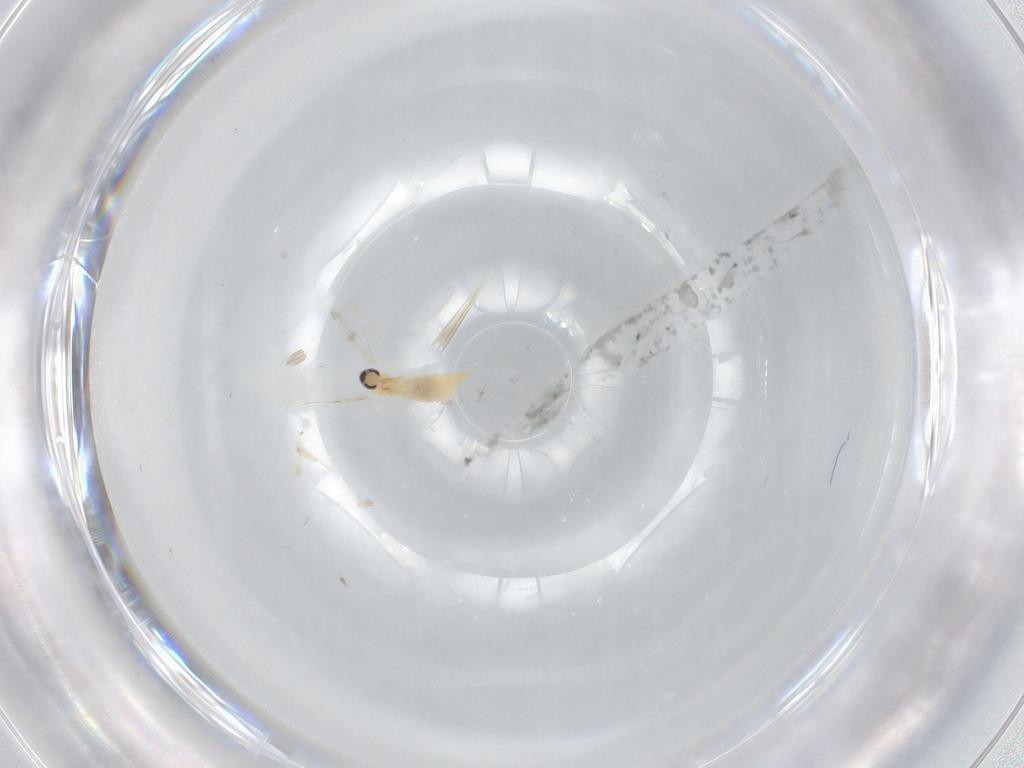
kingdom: Animalia
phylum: Arthropoda
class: Insecta
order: Diptera
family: Cecidomyiidae
